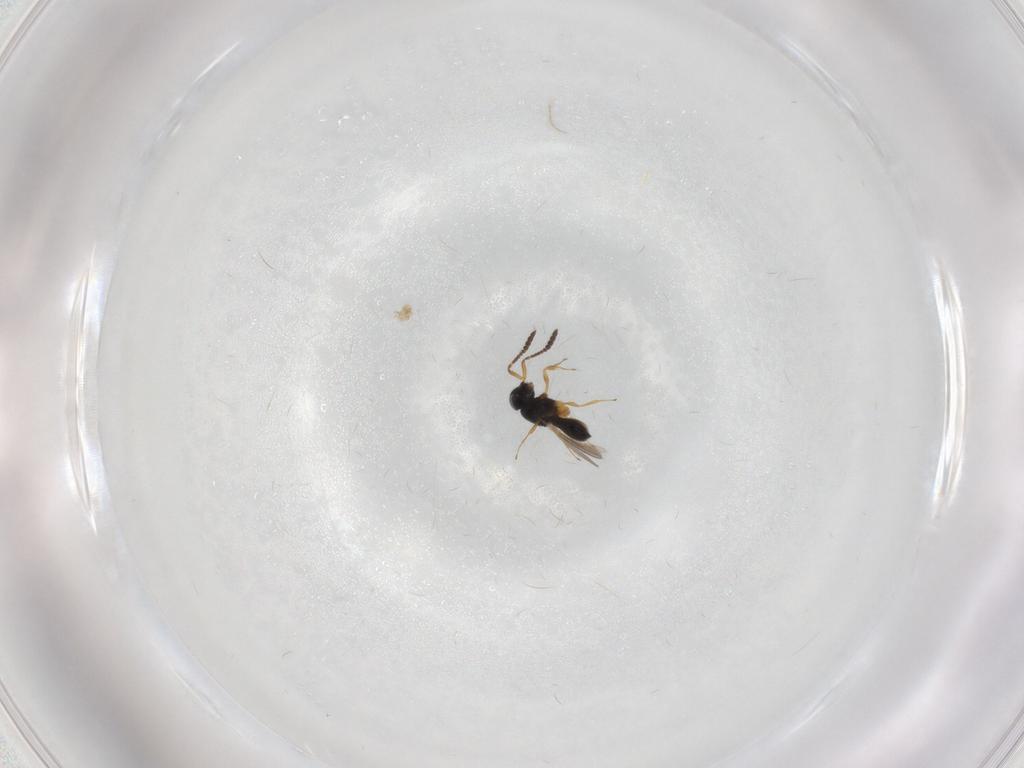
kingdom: Animalia
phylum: Arthropoda
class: Insecta
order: Hymenoptera
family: Scelionidae
